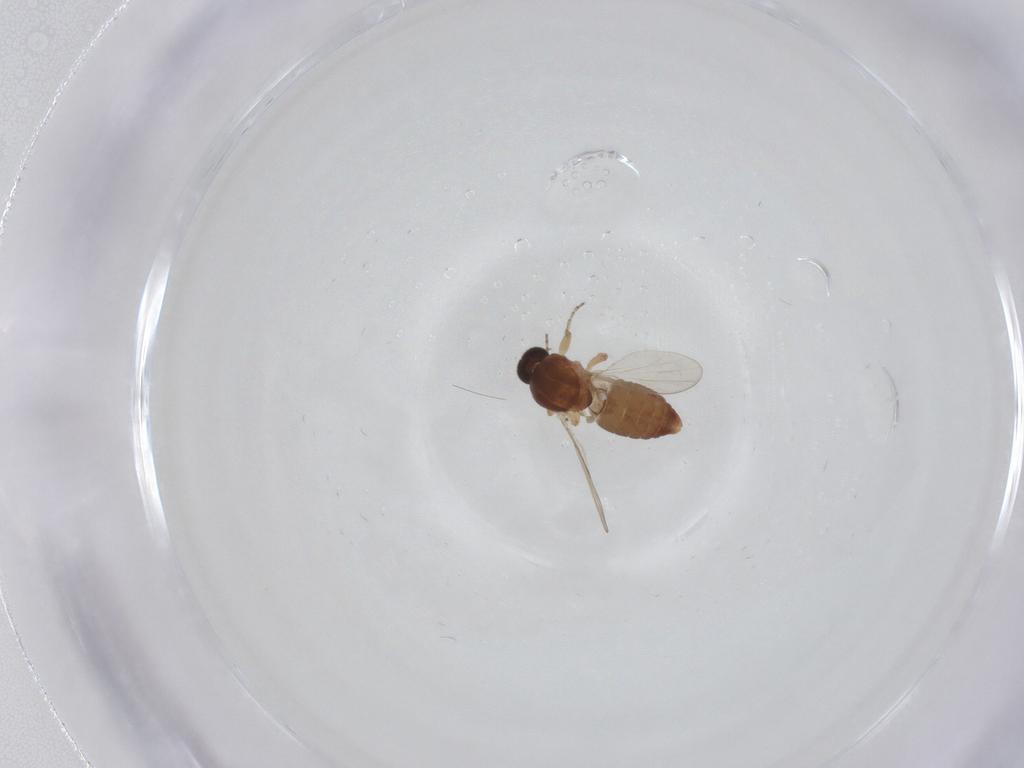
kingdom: Animalia
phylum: Arthropoda
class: Insecta
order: Diptera
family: Ceratopogonidae
